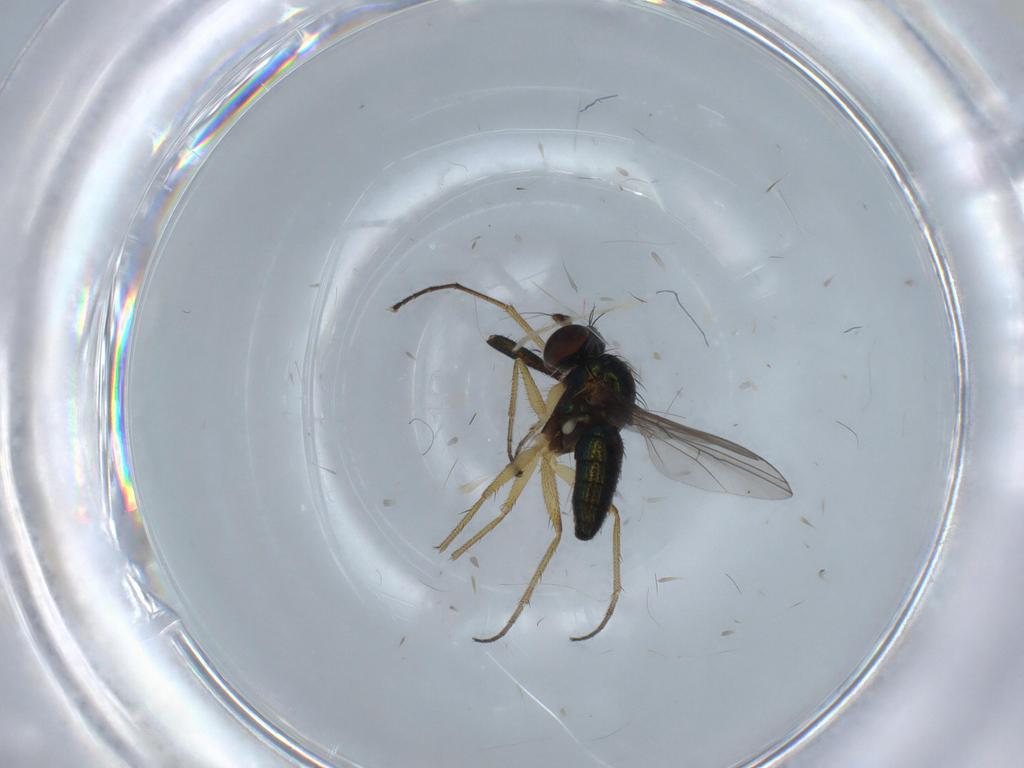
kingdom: Animalia
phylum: Arthropoda
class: Insecta
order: Diptera
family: Dolichopodidae
